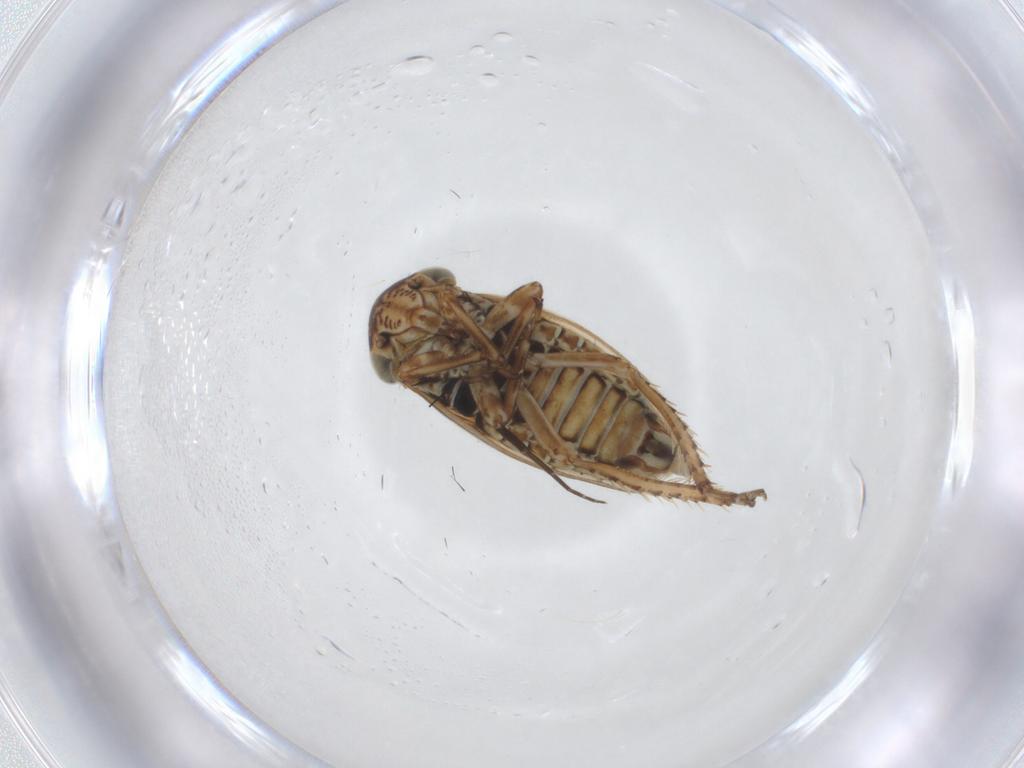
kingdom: Animalia
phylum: Arthropoda
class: Insecta
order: Hemiptera
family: Cicadellidae
